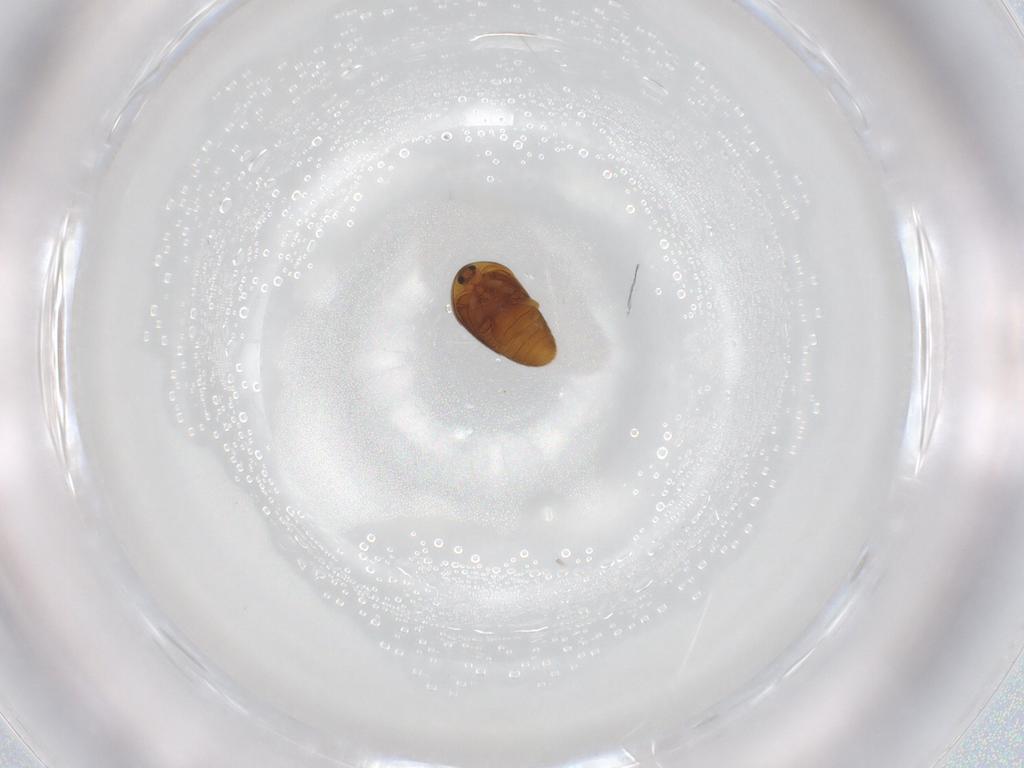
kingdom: Animalia
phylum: Arthropoda
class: Insecta
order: Coleoptera
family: Corylophidae
